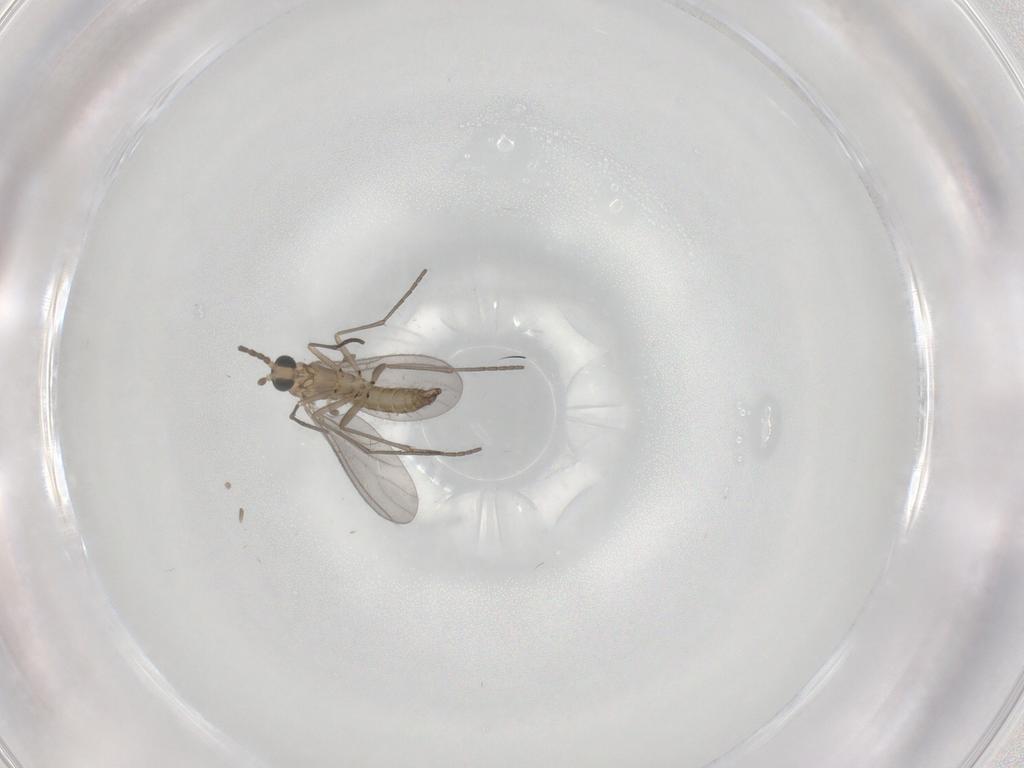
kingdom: Animalia
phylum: Arthropoda
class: Insecta
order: Diptera
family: Sciaridae
